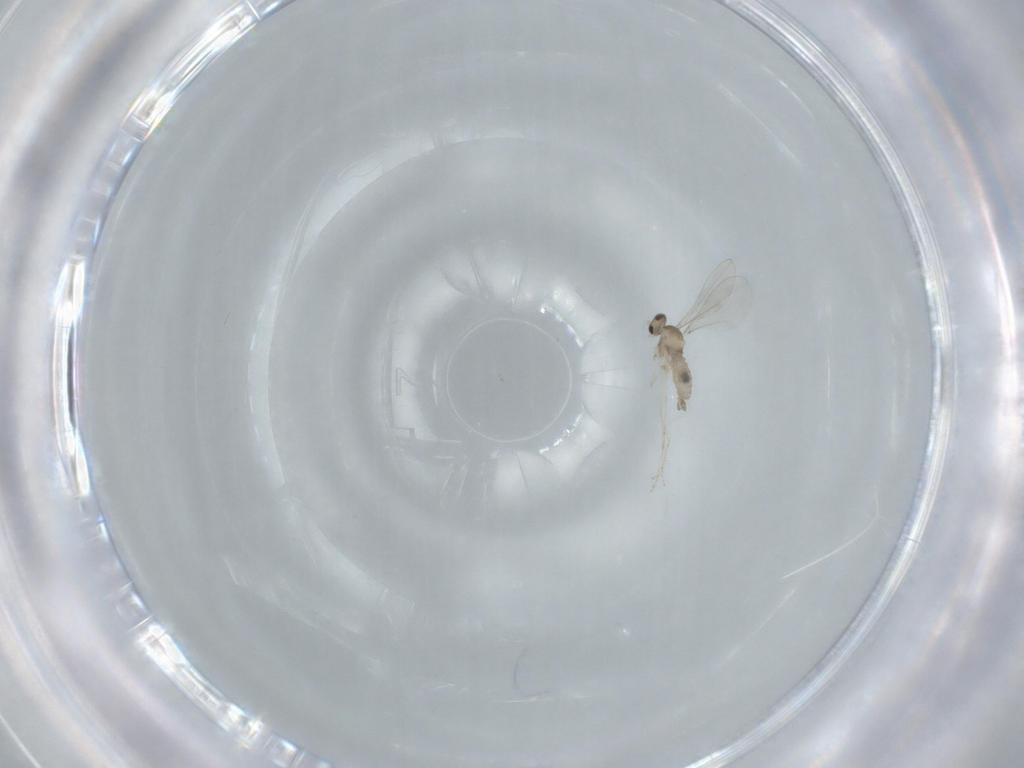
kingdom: Animalia
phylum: Arthropoda
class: Insecta
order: Diptera
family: Cecidomyiidae
